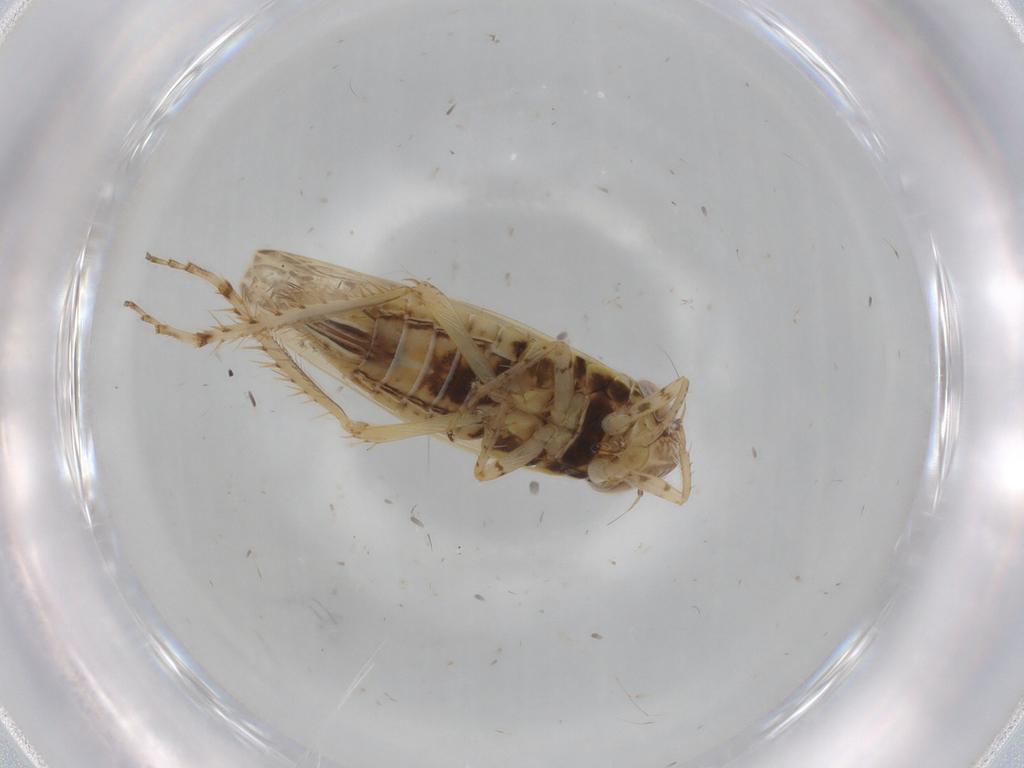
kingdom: Animalia
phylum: Arthropoda
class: Insecta
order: Hemiptera
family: Cicadellidae
